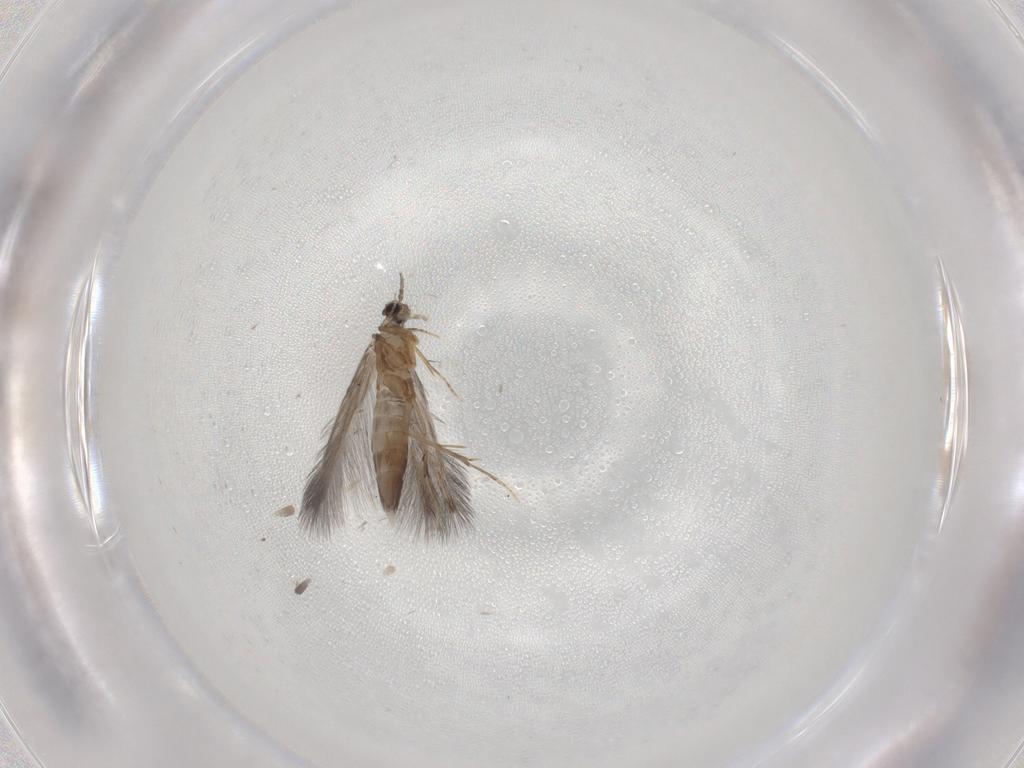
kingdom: Animalia
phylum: Arthropoda
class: Insecta
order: Trichoptera
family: Hydroptilidae
